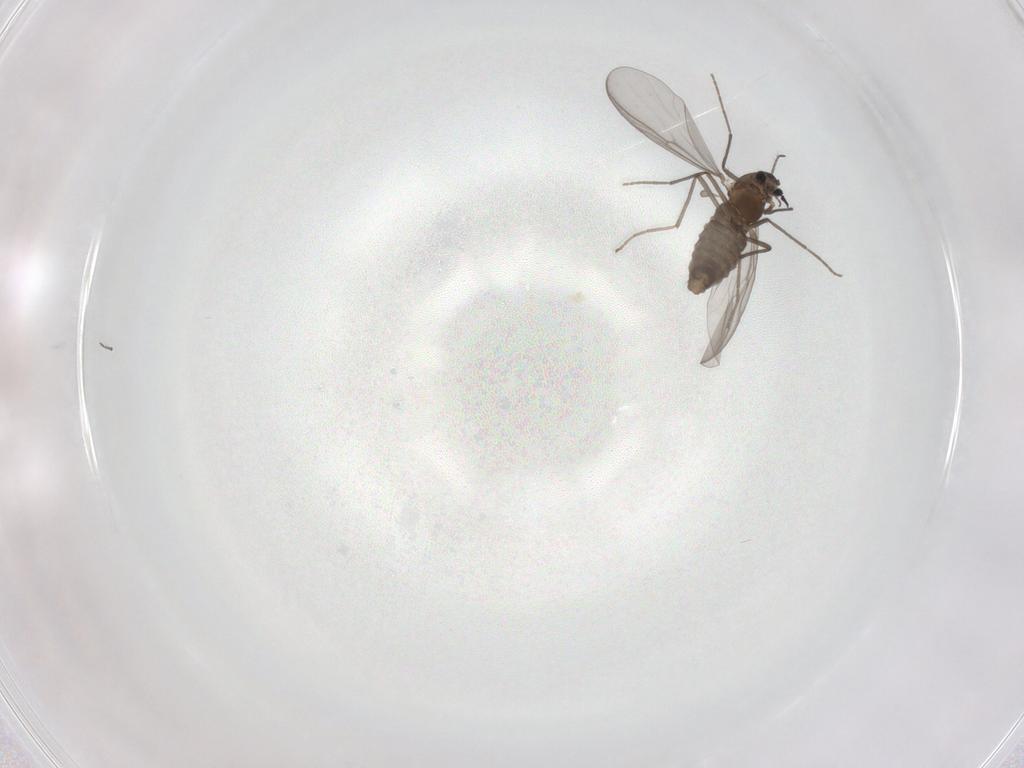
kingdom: Animalia
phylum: Arthropoda
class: Insecta
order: Diptera
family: Chironomidae
